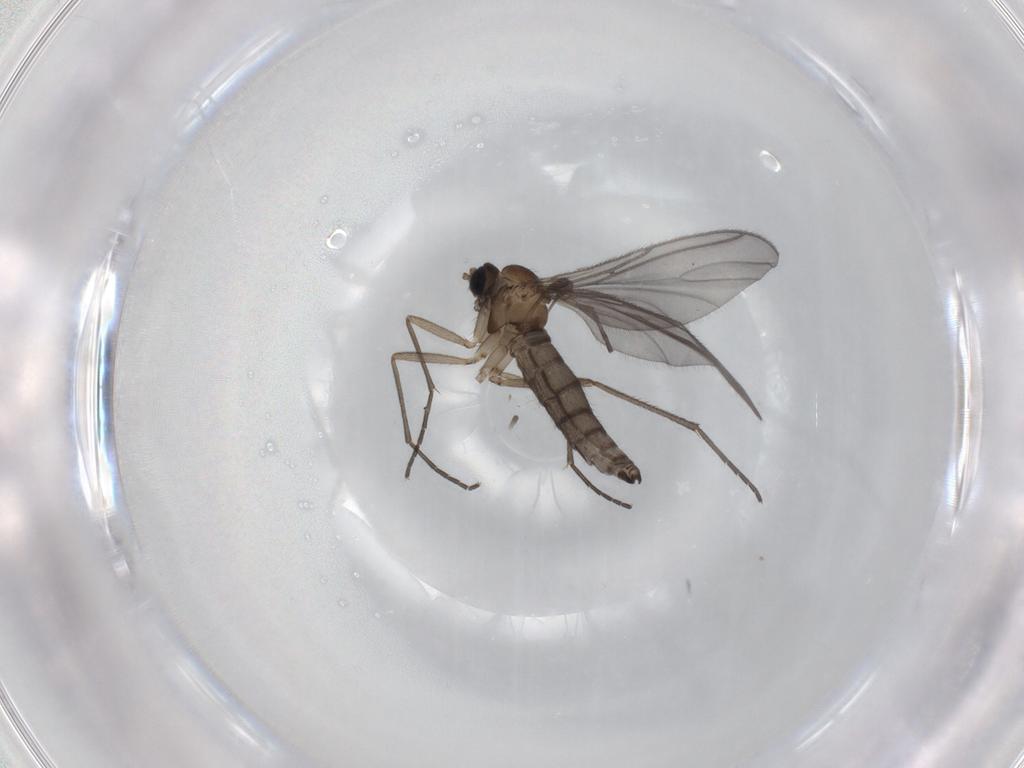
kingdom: Animalia
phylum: Arthropoda
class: Insecta
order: Diptera
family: Sciaridae
